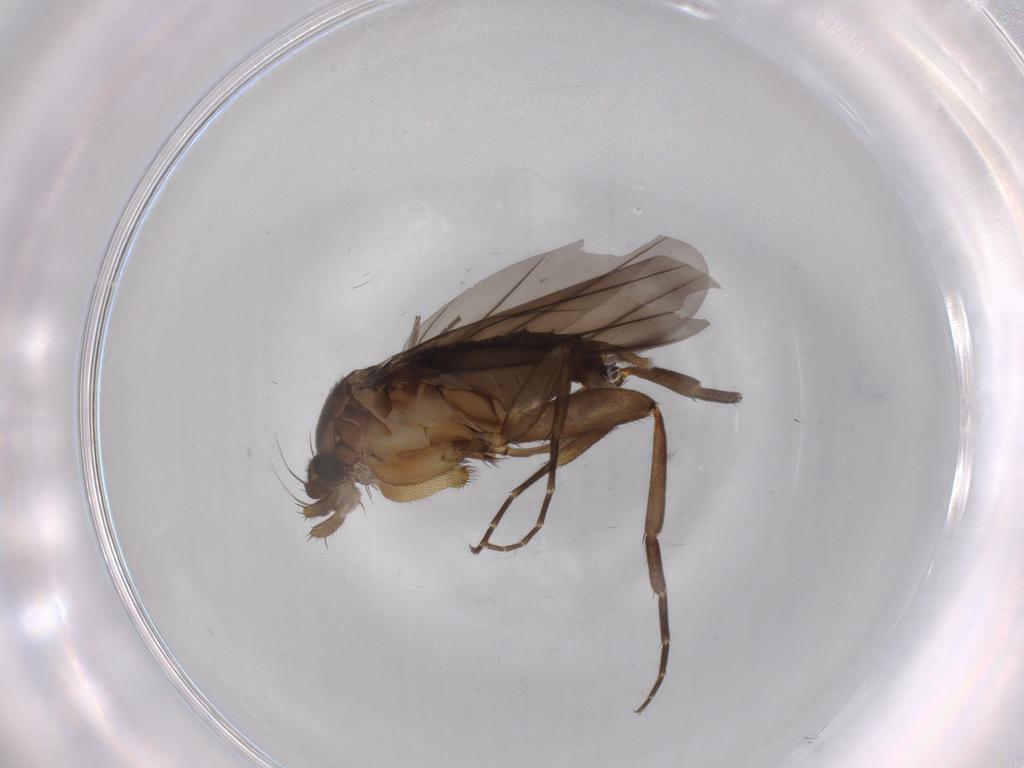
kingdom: Animalia
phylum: Arthropoda
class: Insecta
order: Diptera
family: Phoridae
